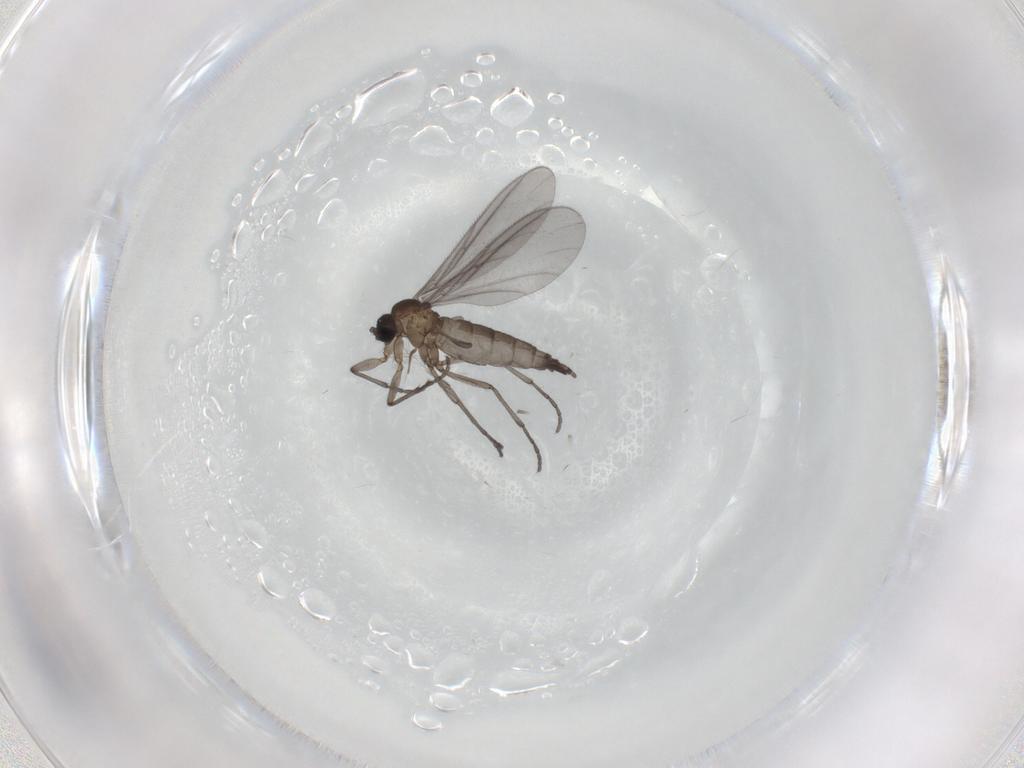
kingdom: Animalia
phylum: Arthropoda
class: Insecta
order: Diptera
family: Sciaridae
